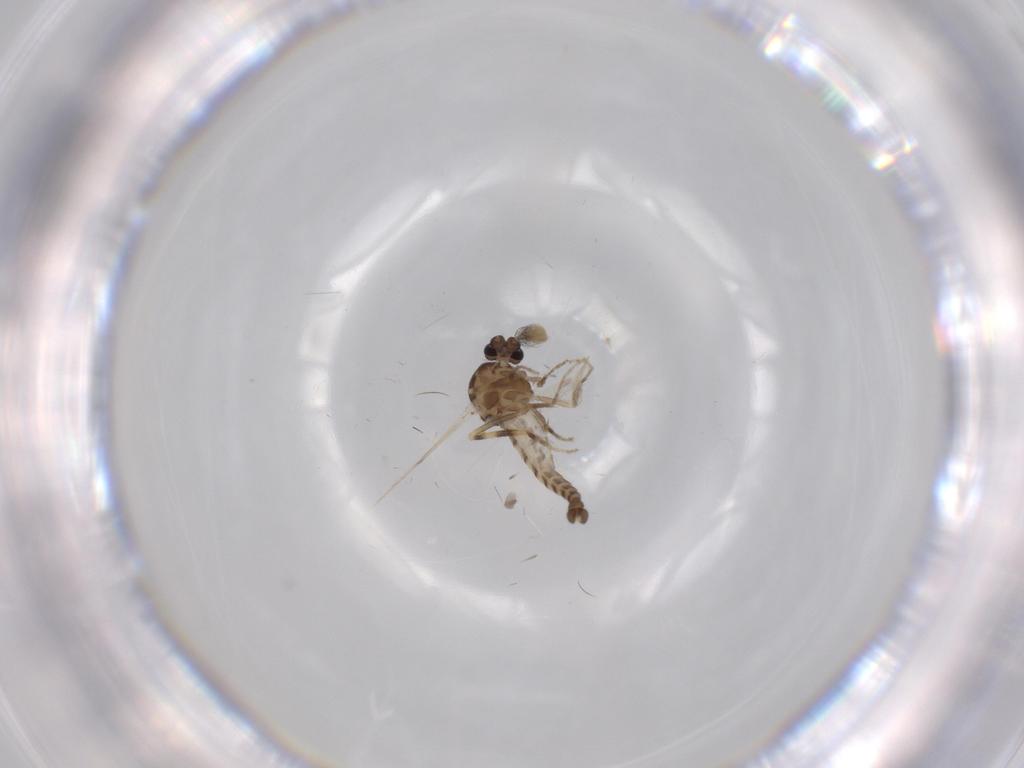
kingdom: Animalia
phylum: Arthropoda
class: Insecta
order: Diptera
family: Ceratopogonidae
